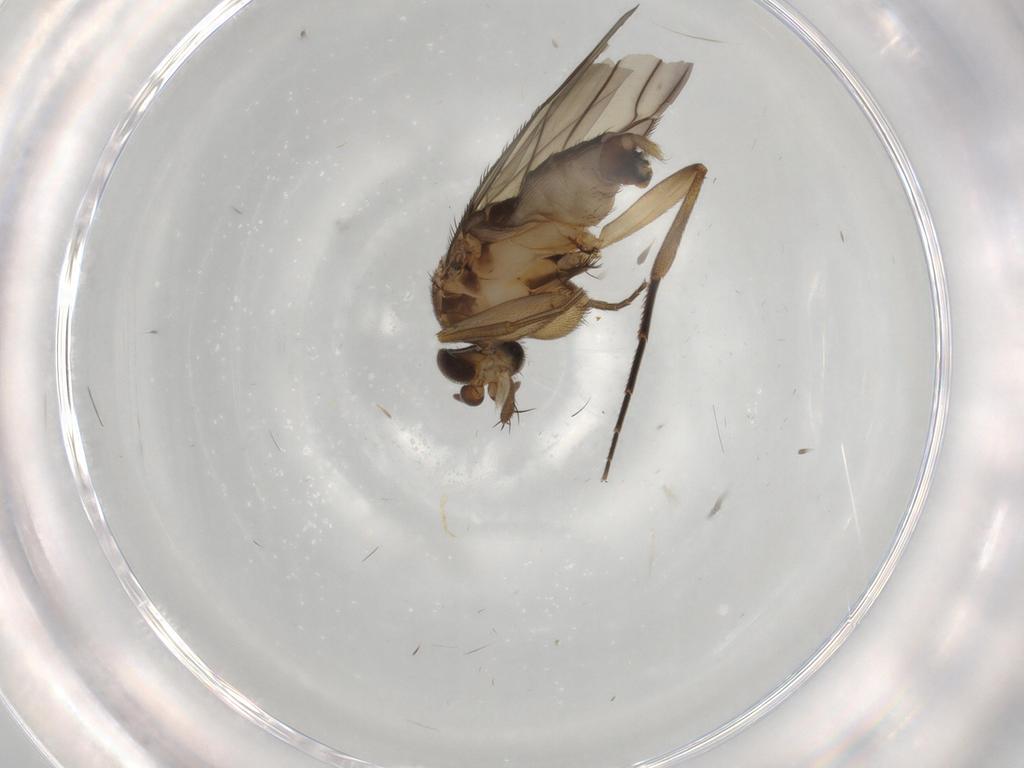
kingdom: Animalia
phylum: Arthropoda
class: Insecta
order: Diptera
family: Phoridae
